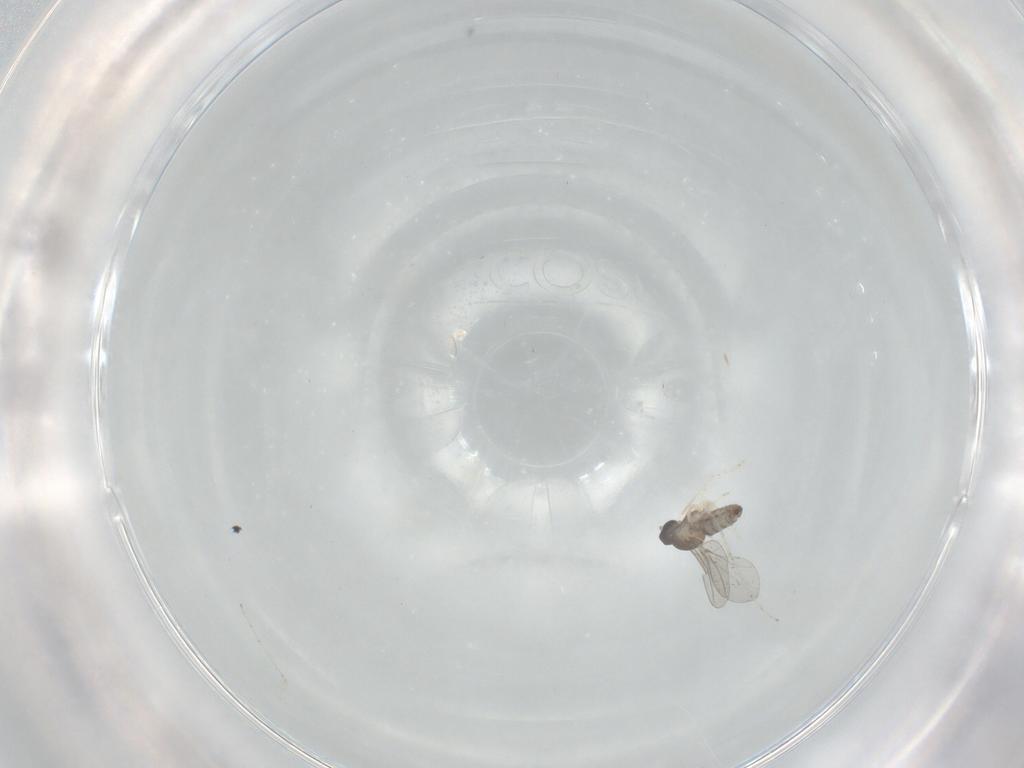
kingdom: Animalia
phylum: Arthropoda
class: Insecta
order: Diptera
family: Cecidomyiidae
